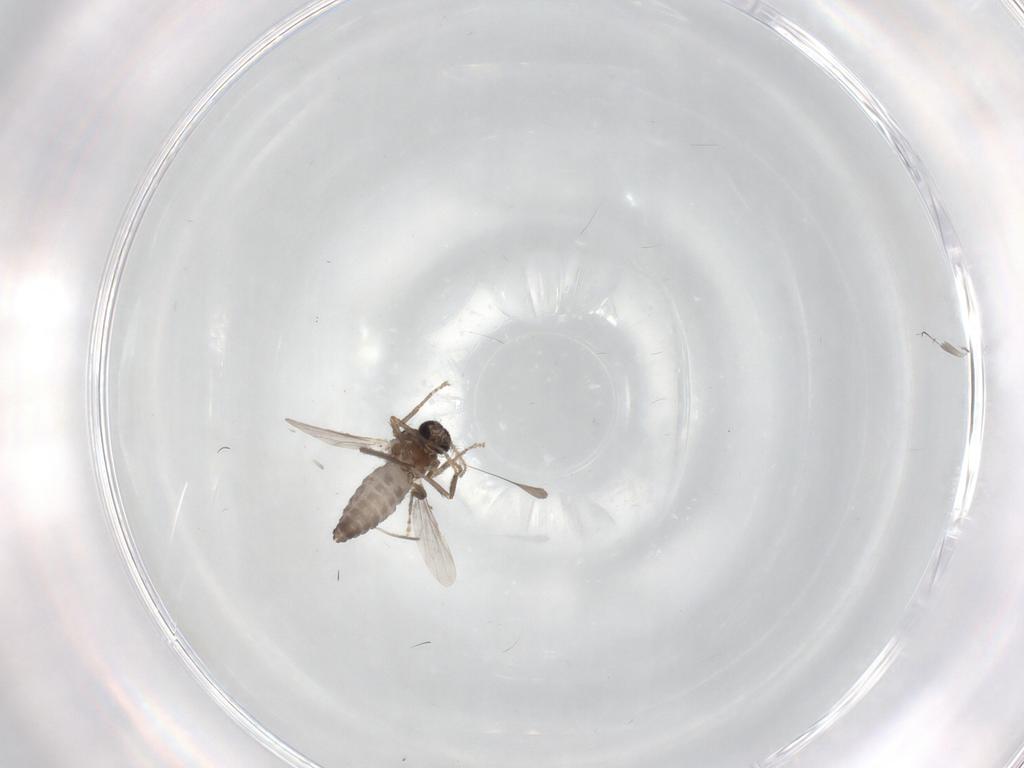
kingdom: Animalia
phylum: Arthropoda
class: Insecta
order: Diptera
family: Ceratopogonidae
